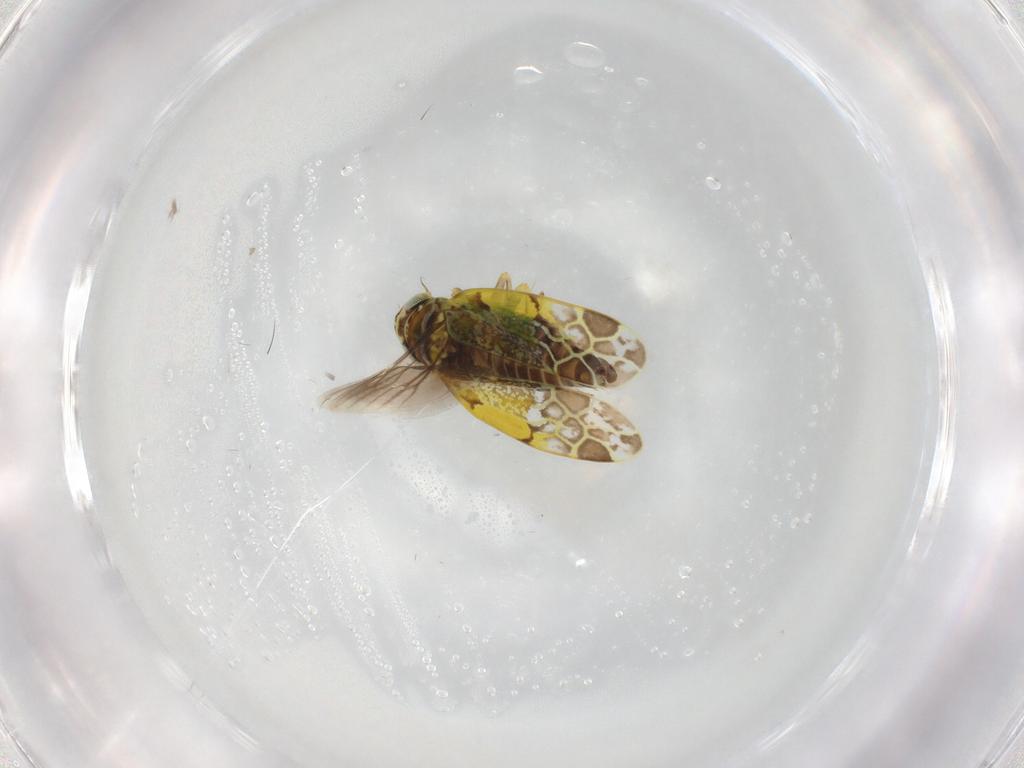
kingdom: Animalia
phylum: Arthropoda
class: Insecta
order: Hemiptera
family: Cicadellidae
